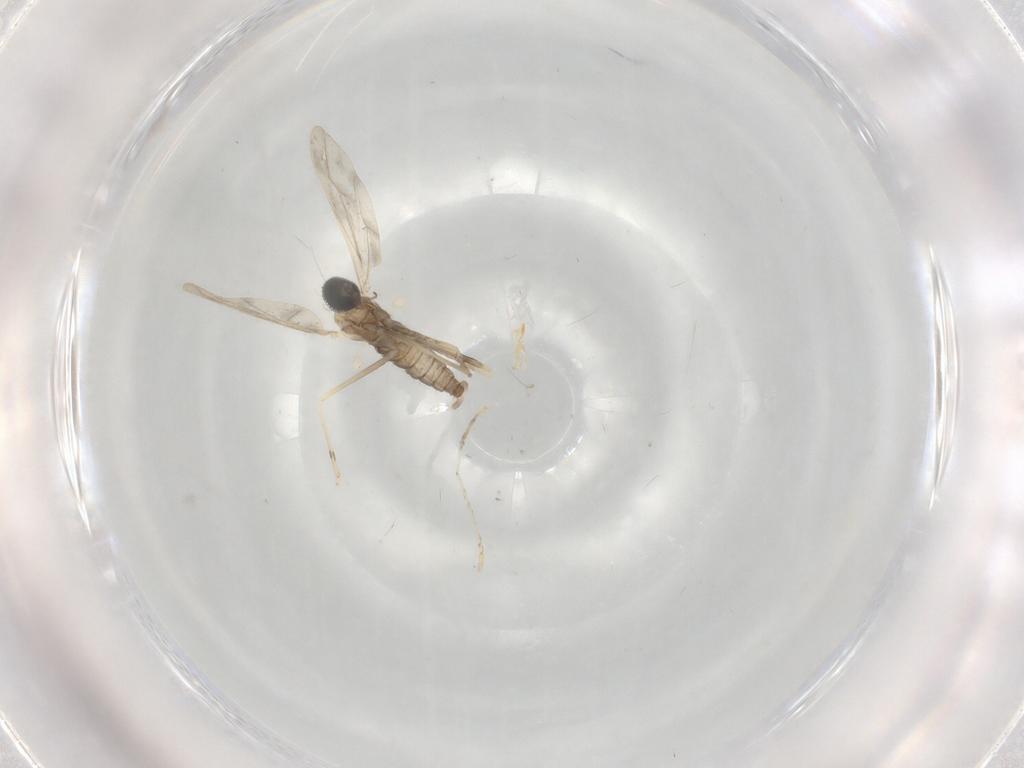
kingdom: Animalia
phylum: Arthropoda
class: Insecta
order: Diptera
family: Cecidomyiidae
